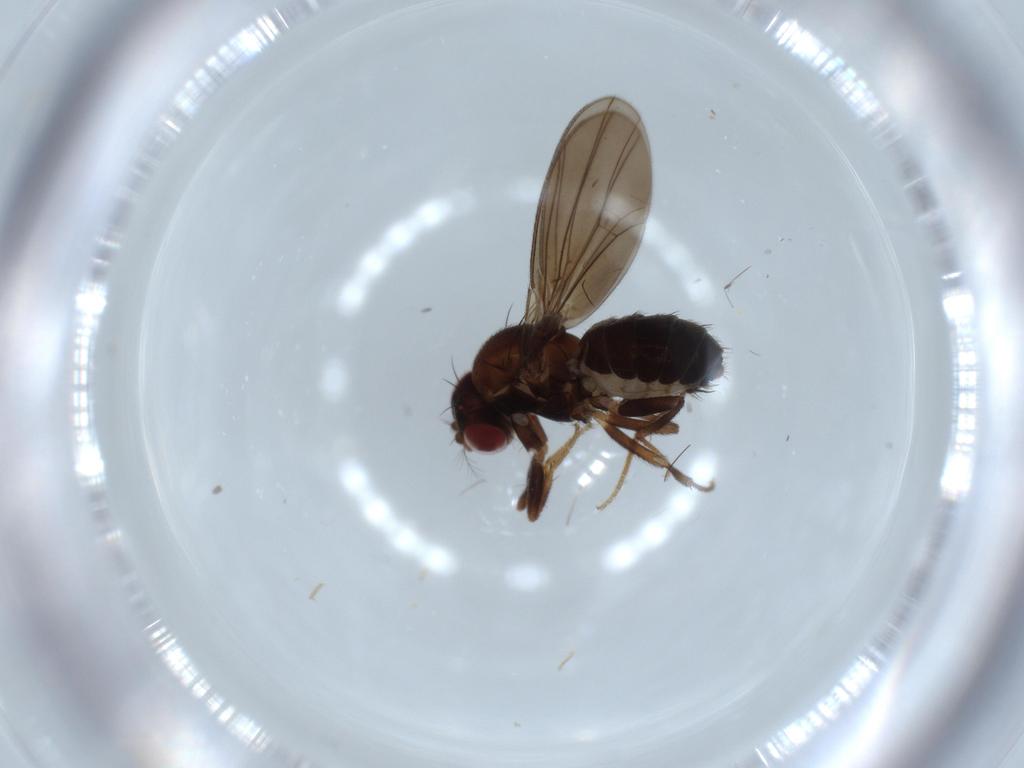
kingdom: Animalia
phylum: Arthropoda
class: Insecta
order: Diptera
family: Drosophilidae
